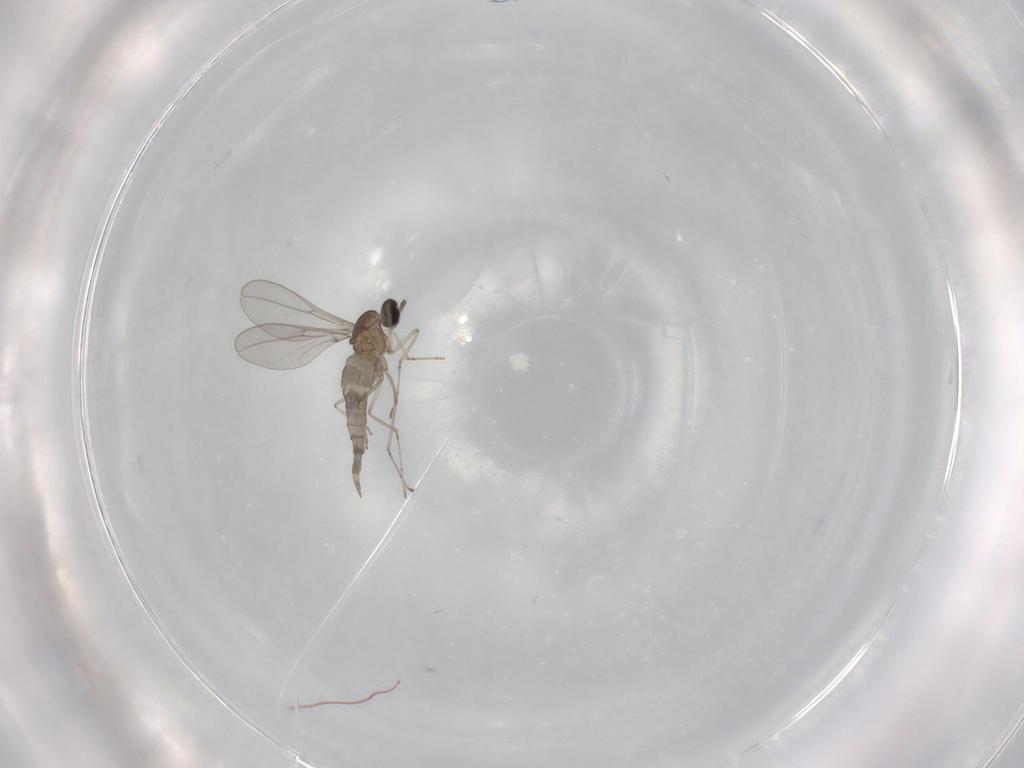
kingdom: Animalia
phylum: Arthropoda
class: Insecta
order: Diptera
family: Cecidomyiidae
